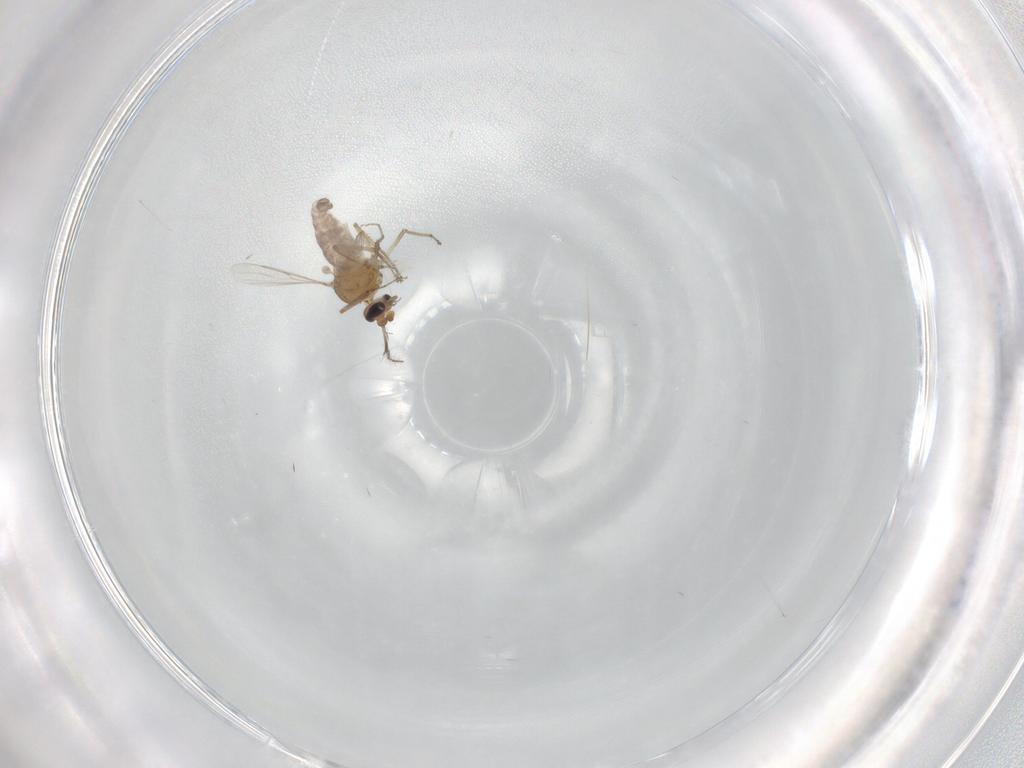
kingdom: Animalia
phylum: Arthropoda
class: Insecta
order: Diptera
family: Cecidomyiidae
